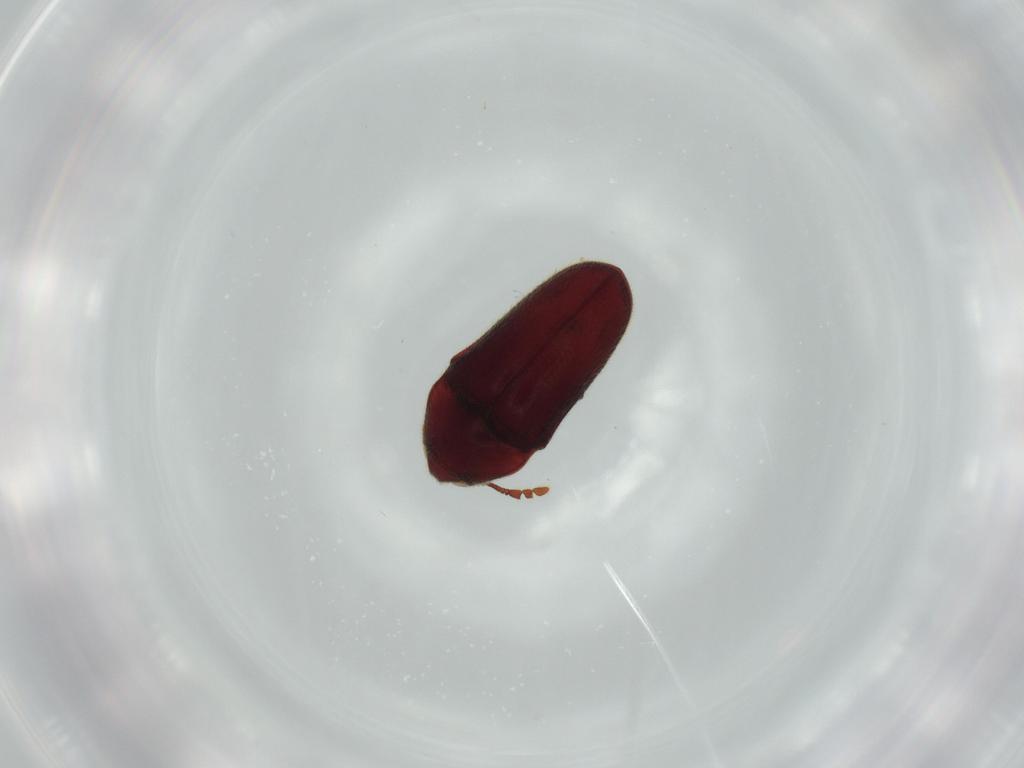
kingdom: Animalia
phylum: Arthropoda
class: Insecta
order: Coleoptera
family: Throscidae
